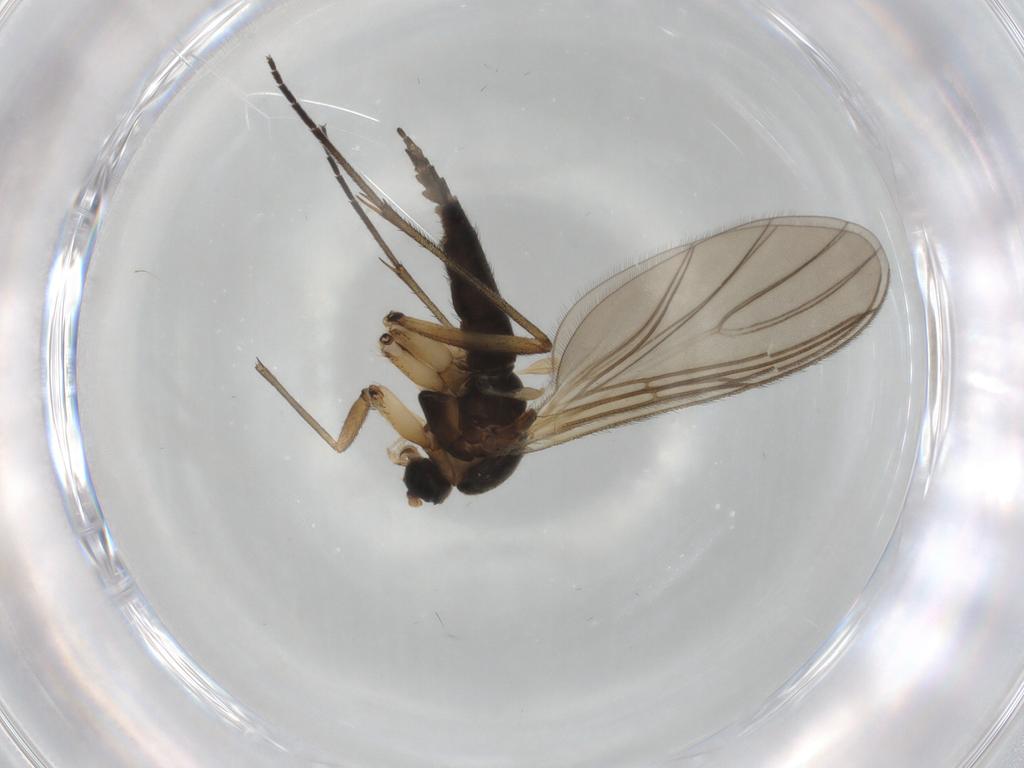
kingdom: Animalia
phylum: Arthropoda
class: Insecta
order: Diptera
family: Sciaridae
